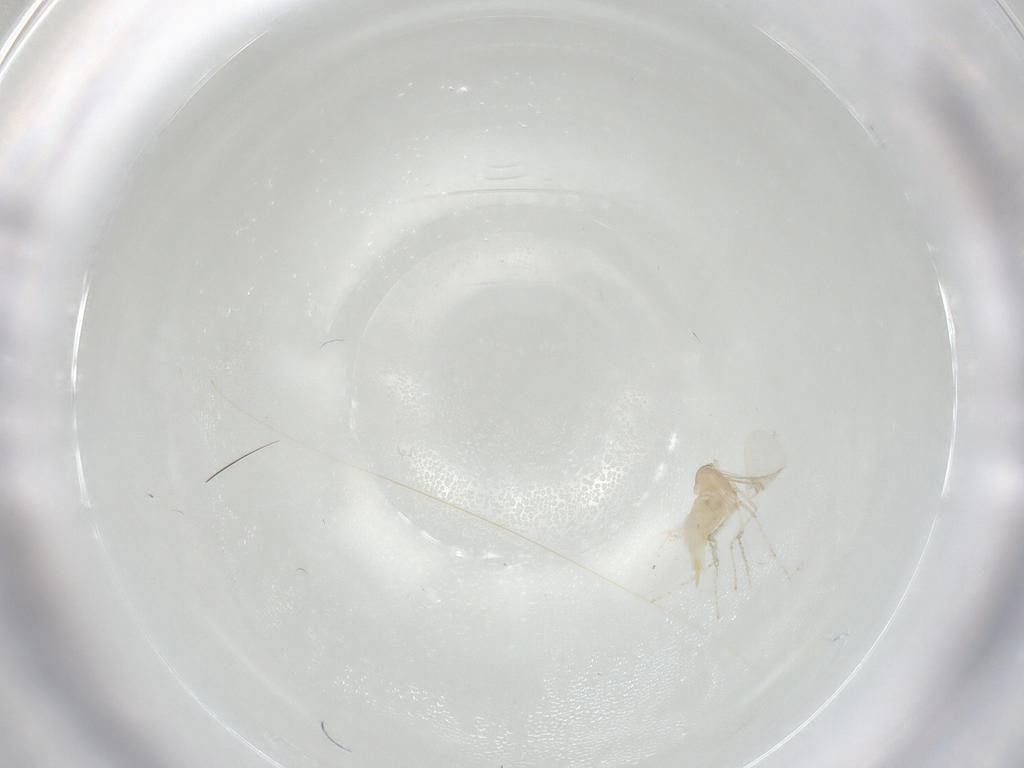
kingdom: Animalia
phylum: Arthropoda
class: Insecta
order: Diptera
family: Cecidomyiidae
